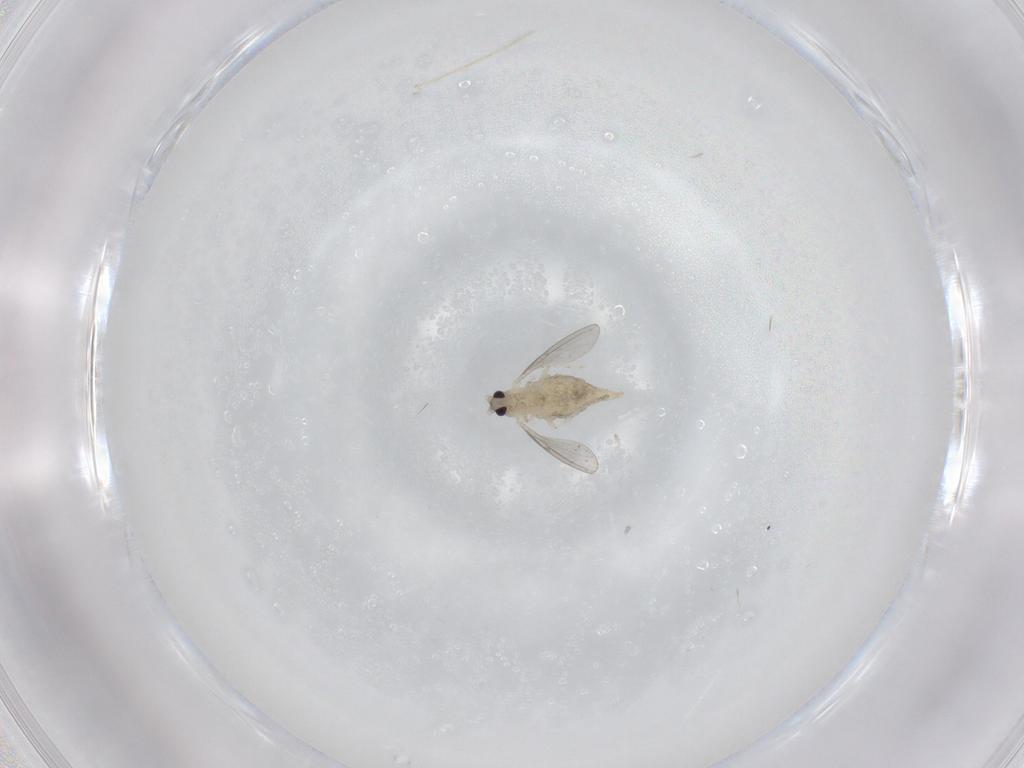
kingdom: Animalia
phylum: Arthropoda
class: Insecta
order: Diptera
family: Cecidomyiidae
